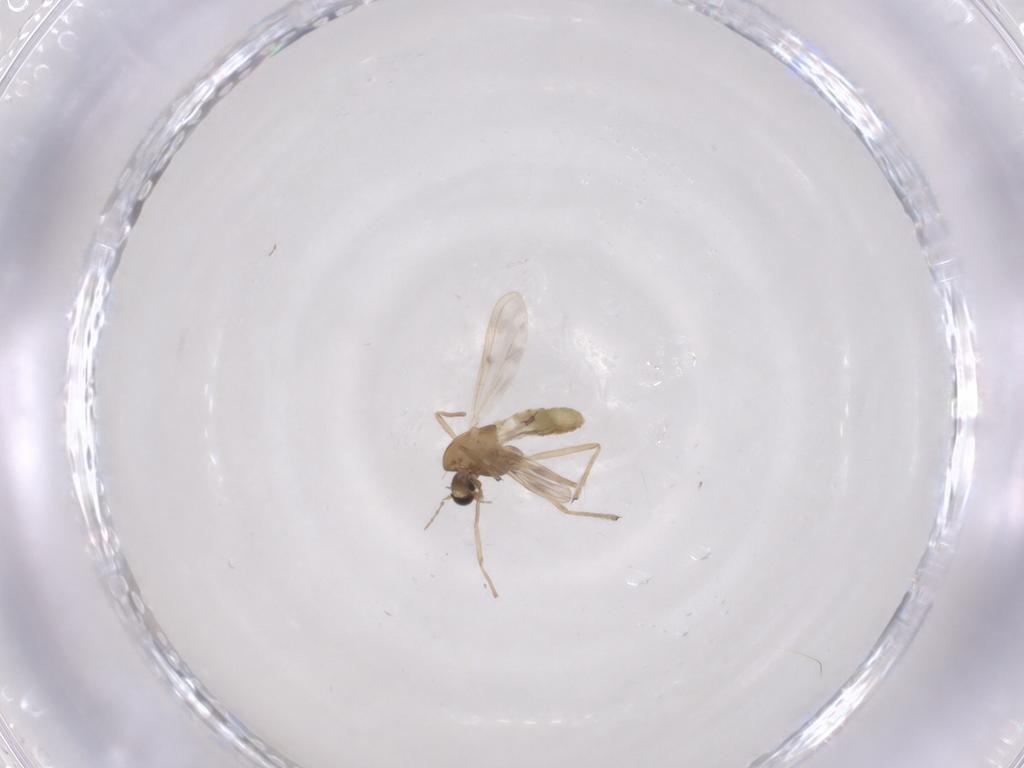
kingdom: Animalia
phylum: Arthropoda
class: Insecta
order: Diptera
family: Chironomidae
